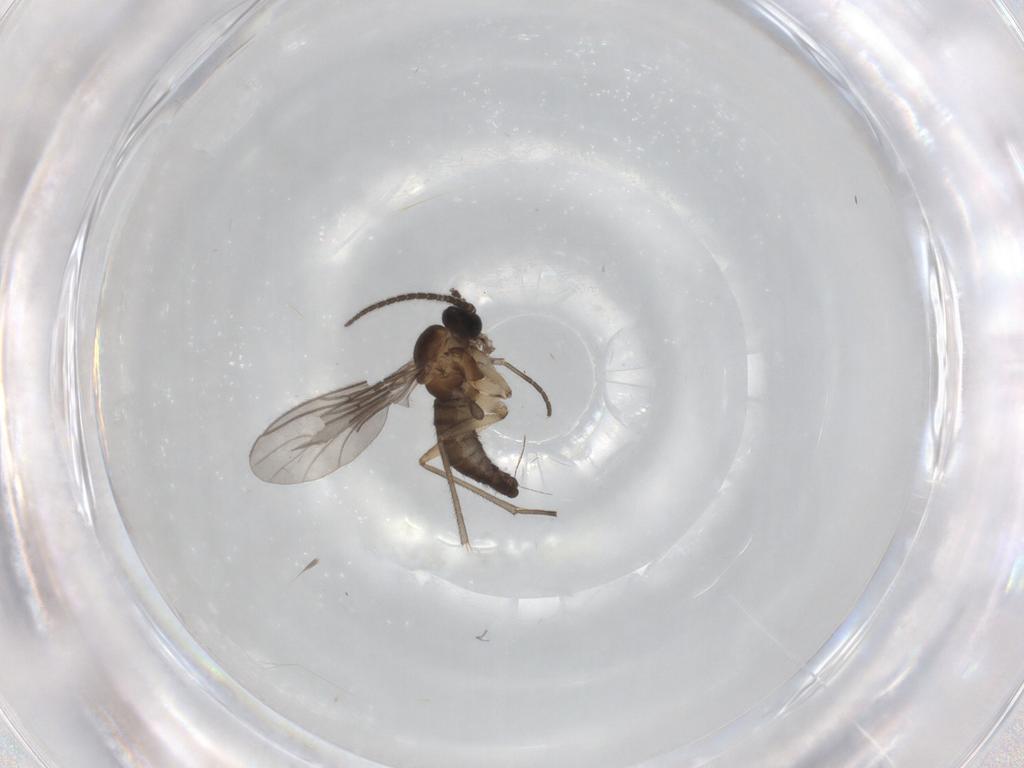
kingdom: Animalia
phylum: Arthropoda
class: Insecta
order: Diptera
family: Sciaridae
